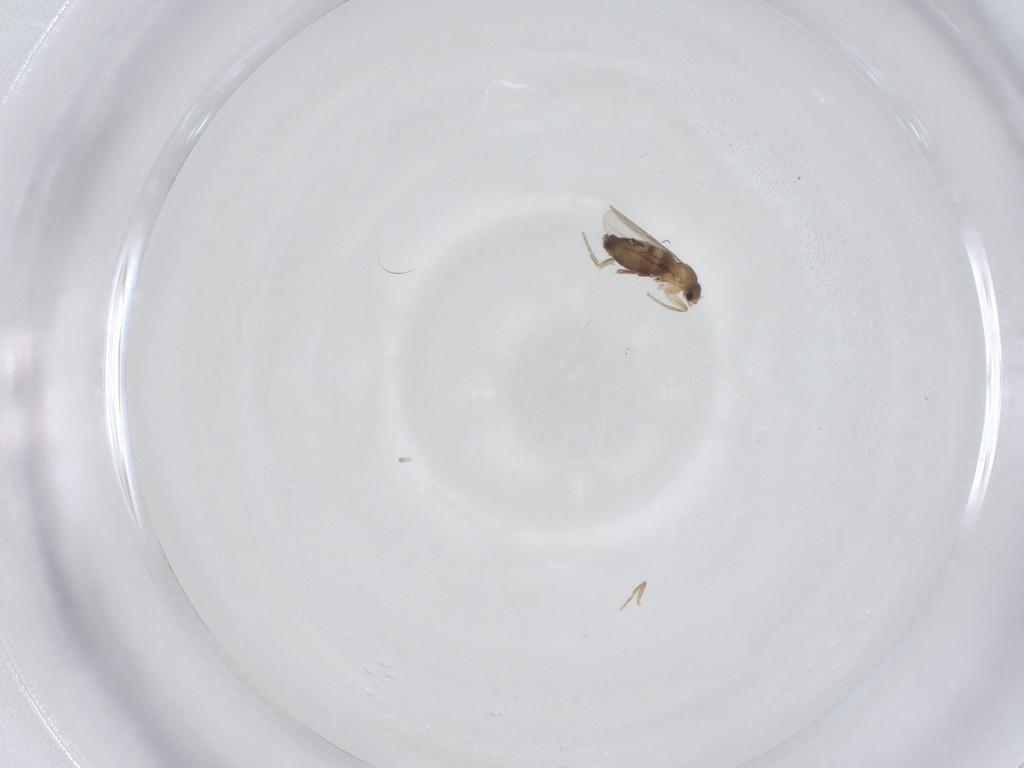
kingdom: Animalia
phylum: Arthropoda
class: Insecta
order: Diptera
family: Phoridae
